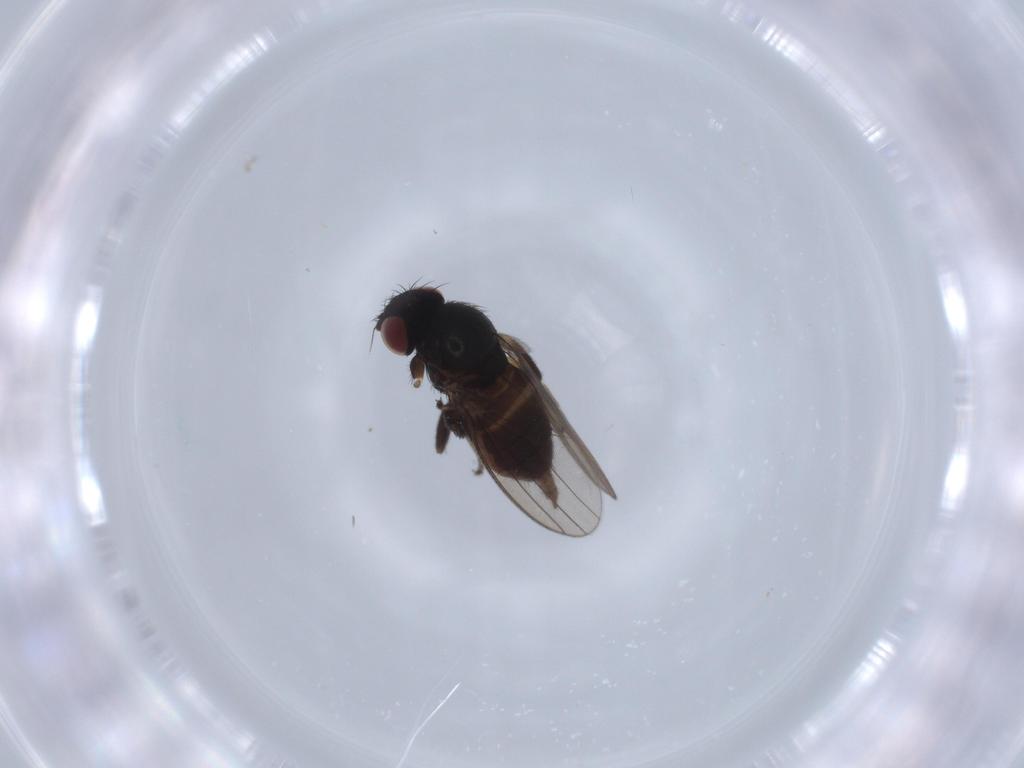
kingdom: Animalia
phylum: Arthropoda
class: Insecta
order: Diptera
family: Milichiidae
